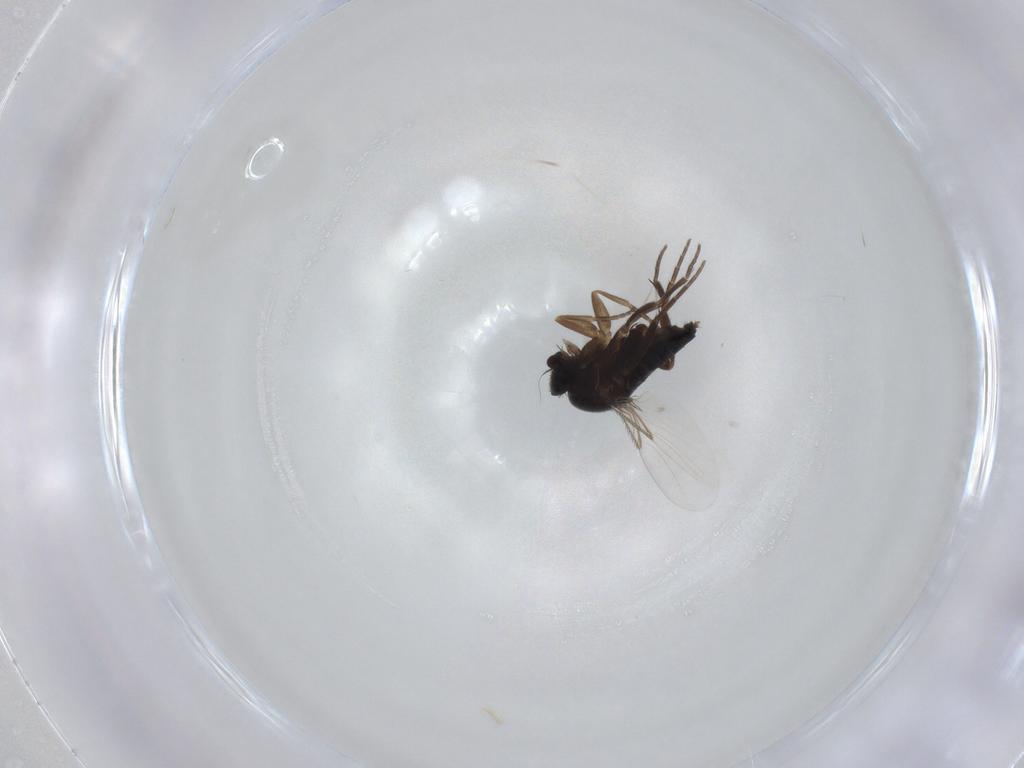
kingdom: Animalia
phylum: Arthropoda
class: Insecta
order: Diptera
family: Phoridae
